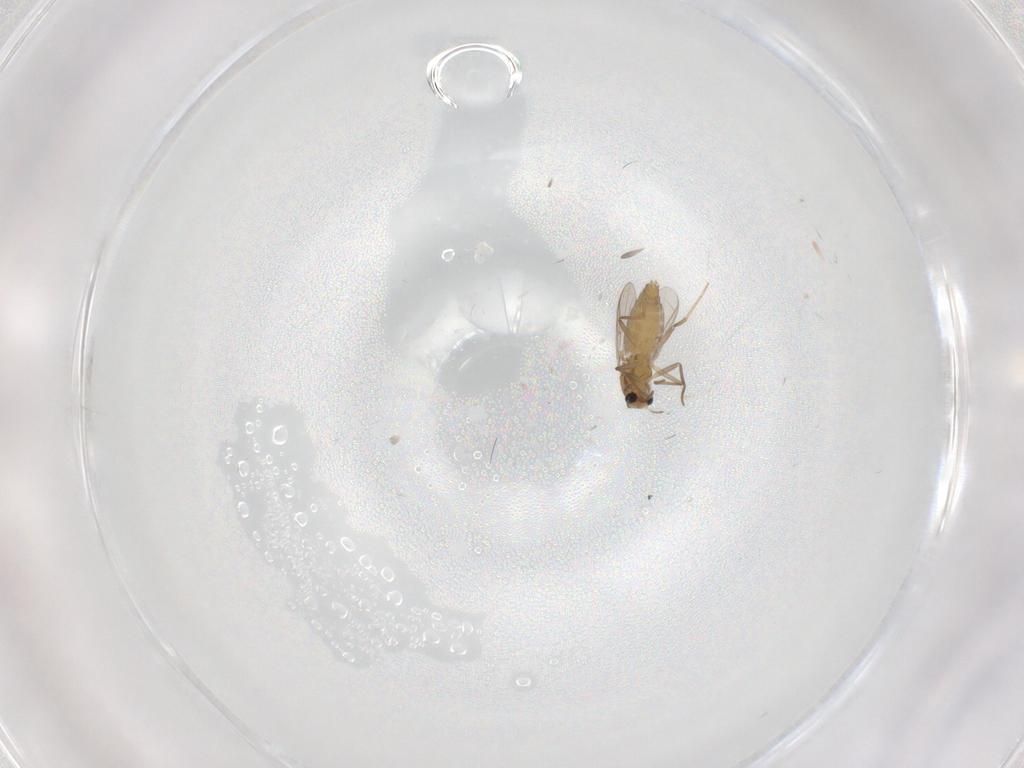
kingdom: Animalia
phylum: Arthropoda
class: Insecta
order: Diptera
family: Chironomidae
